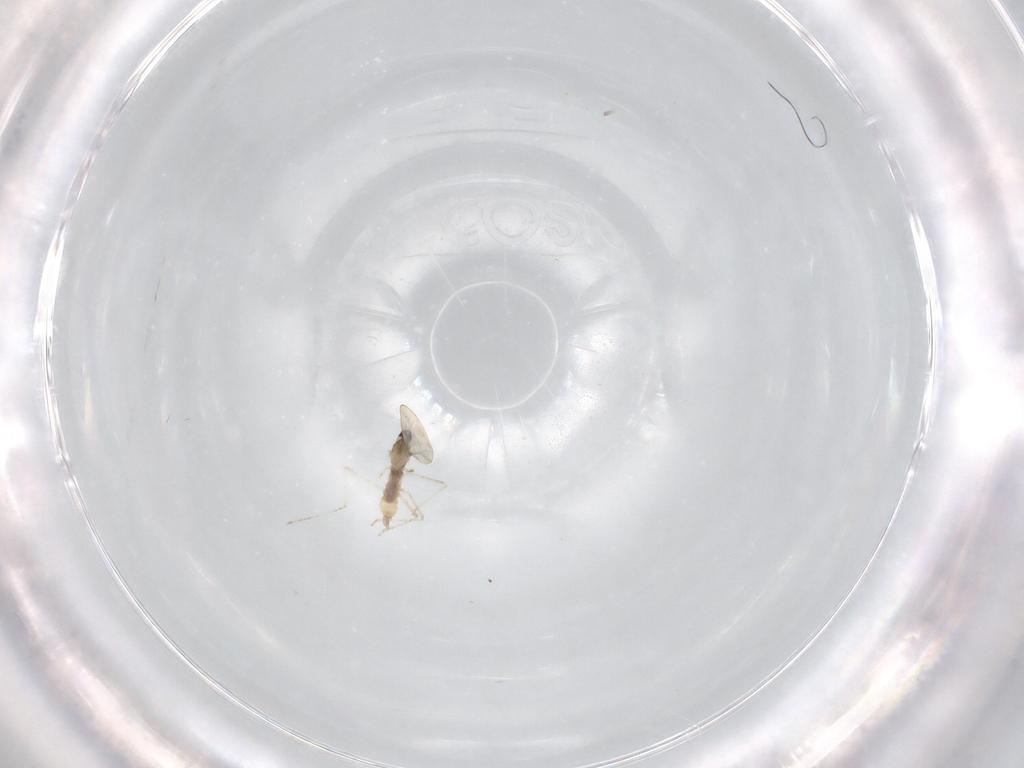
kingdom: Animalia
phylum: Arthropoda
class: Insecta
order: Diptera
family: Cecidomyiidae
